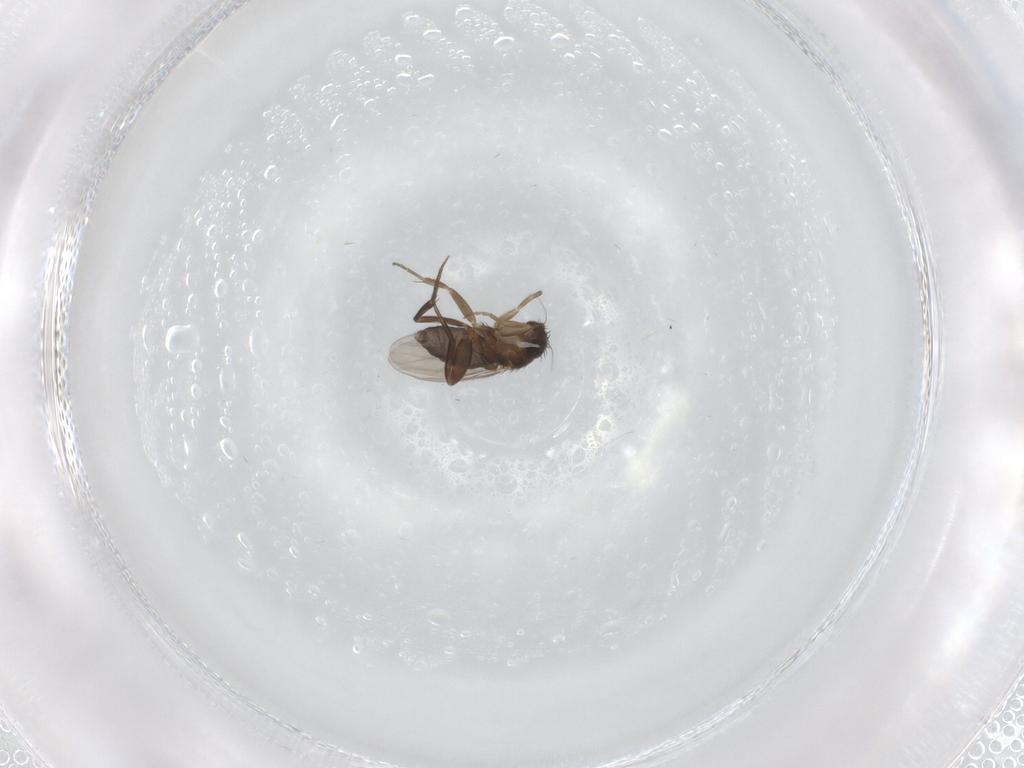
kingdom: Animalia
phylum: Arthropoda
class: Insecta
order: Diptera
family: Phoridae
